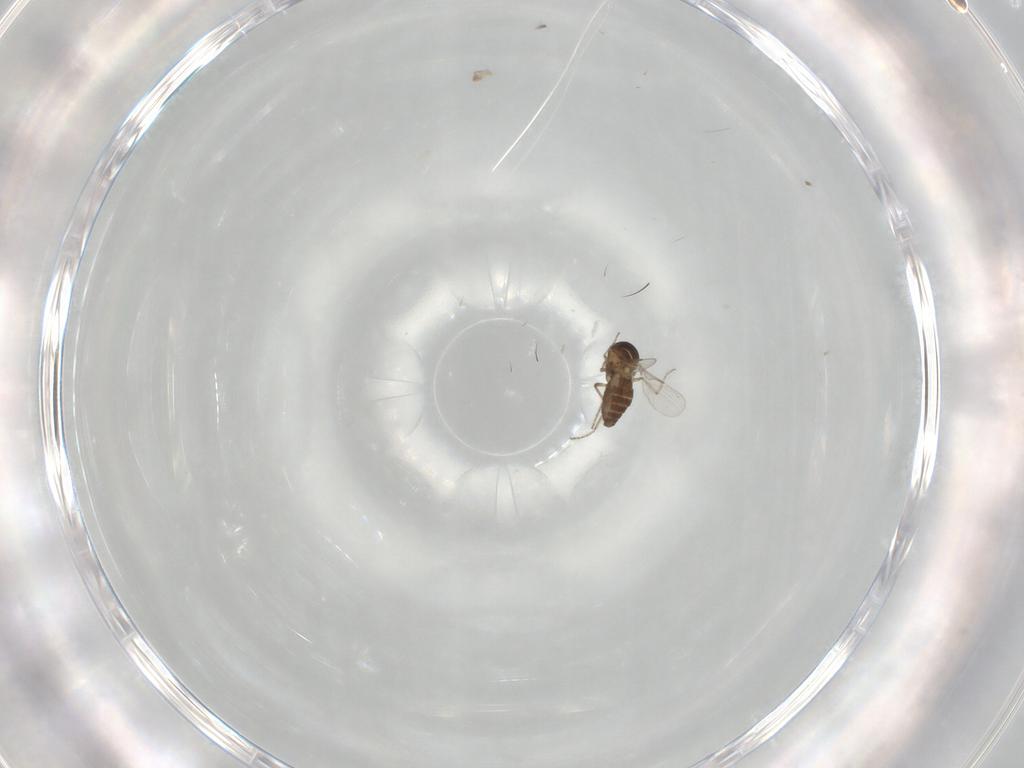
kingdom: Animalia
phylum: Arthropoda
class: Insecta
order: Diptera
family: Ceratopogonidae
